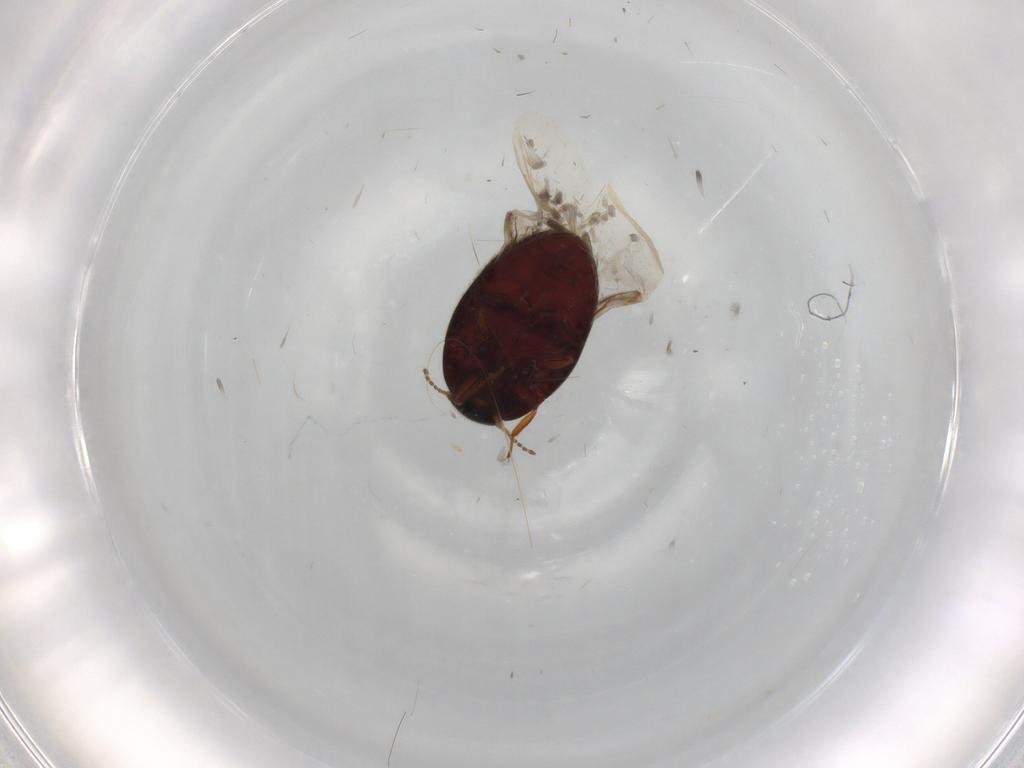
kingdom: Animalia
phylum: Arthropoda
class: Insecta
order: Coleoptera
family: Limnichidae
